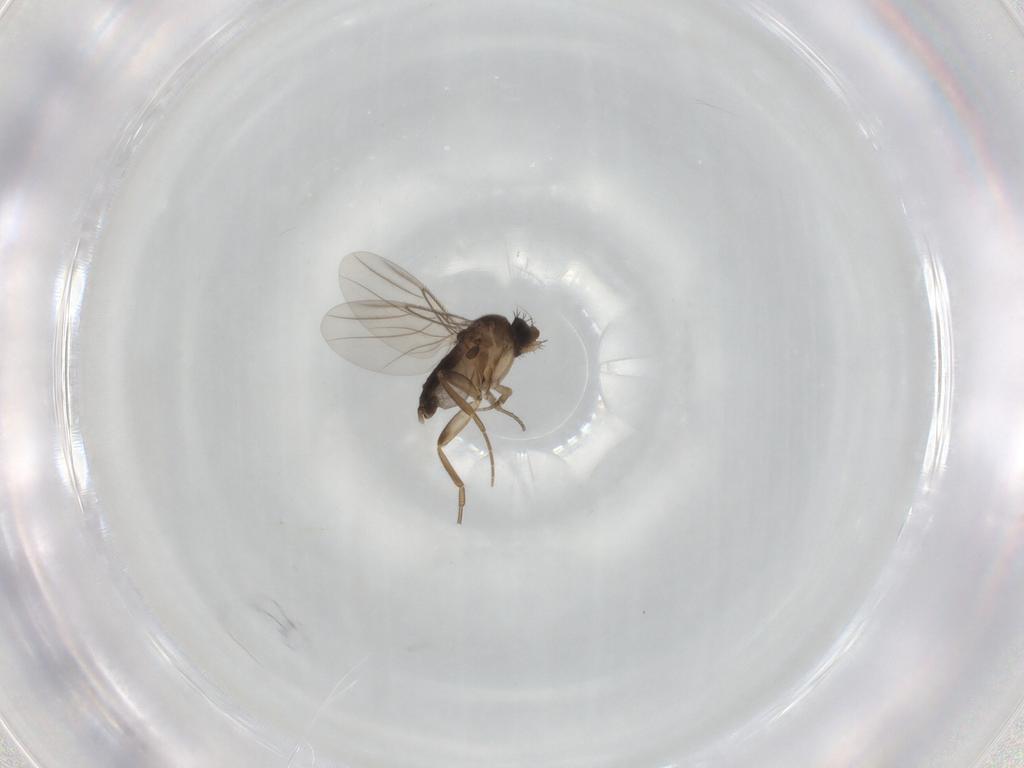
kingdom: Animalia
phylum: Arthropoda
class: Insecta
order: Diptera
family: Phoridae
